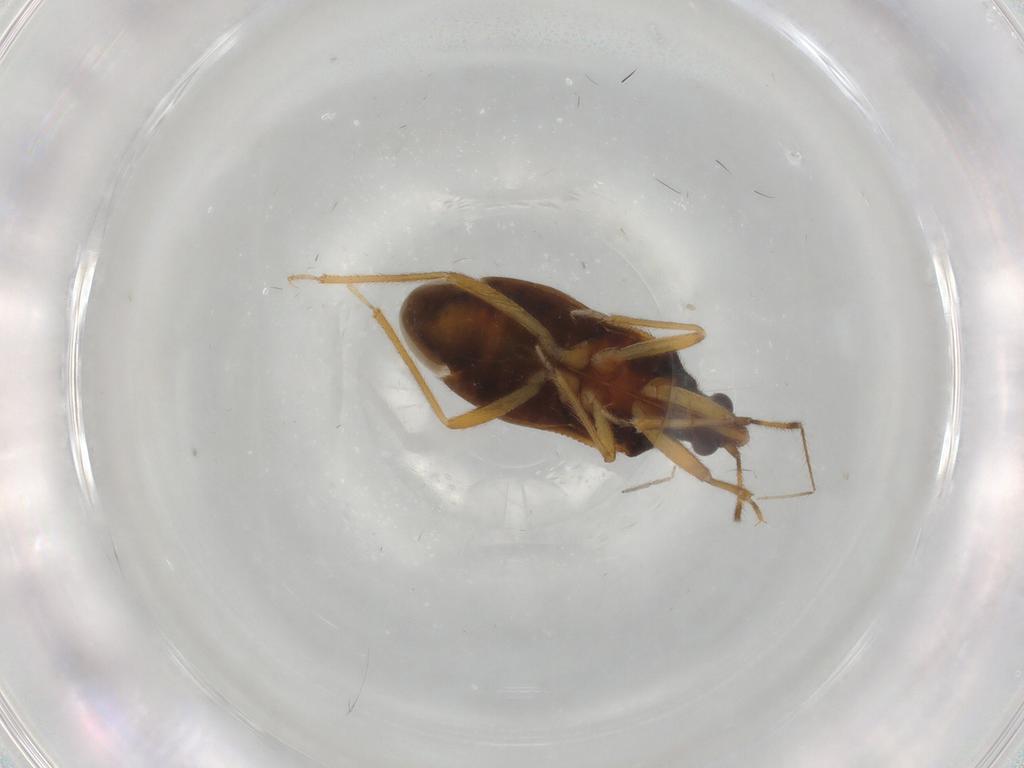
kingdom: Animalia
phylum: Arthropoda
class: Insecta
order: Hemiptera
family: Anthocoridae
